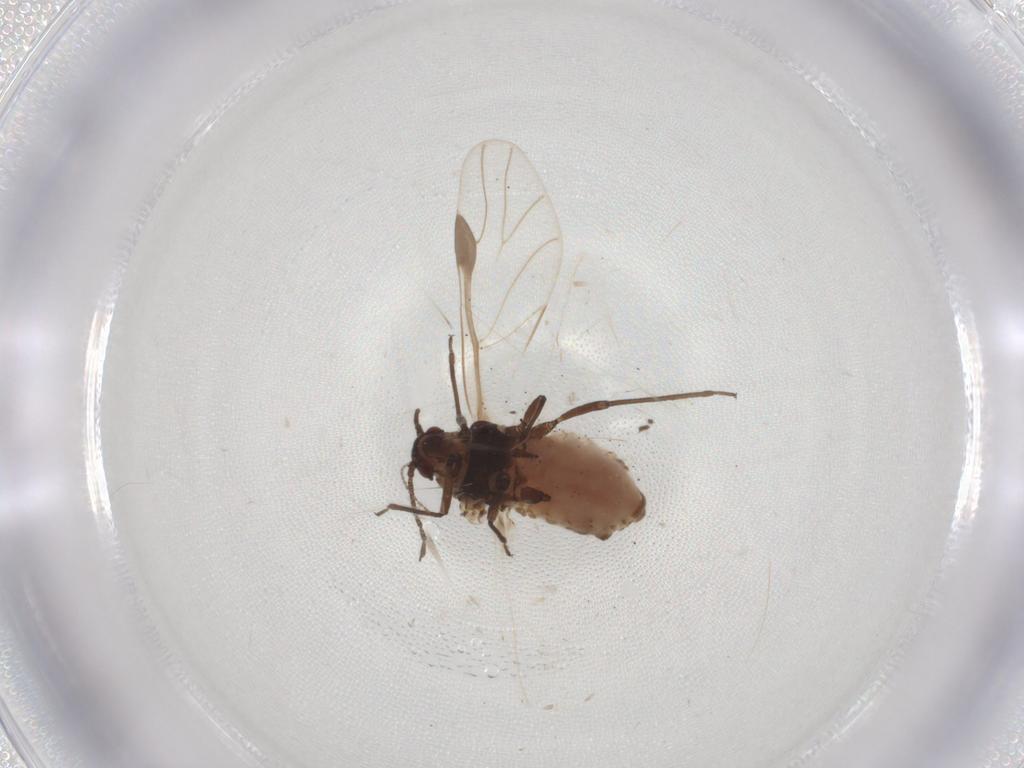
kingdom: Animalia
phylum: Arthropoda
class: Insecta
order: Hemiptera
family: Aphididae
